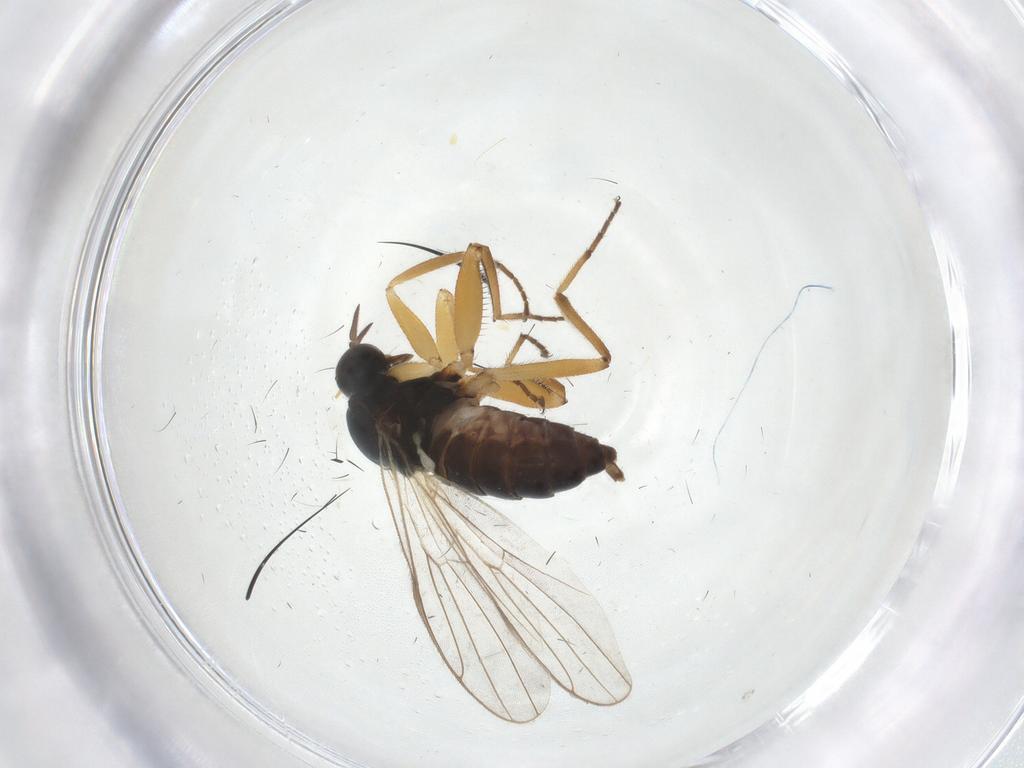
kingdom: Animalia
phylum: Arthropoda
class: Insecta
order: Diptera
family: Hybotidae
